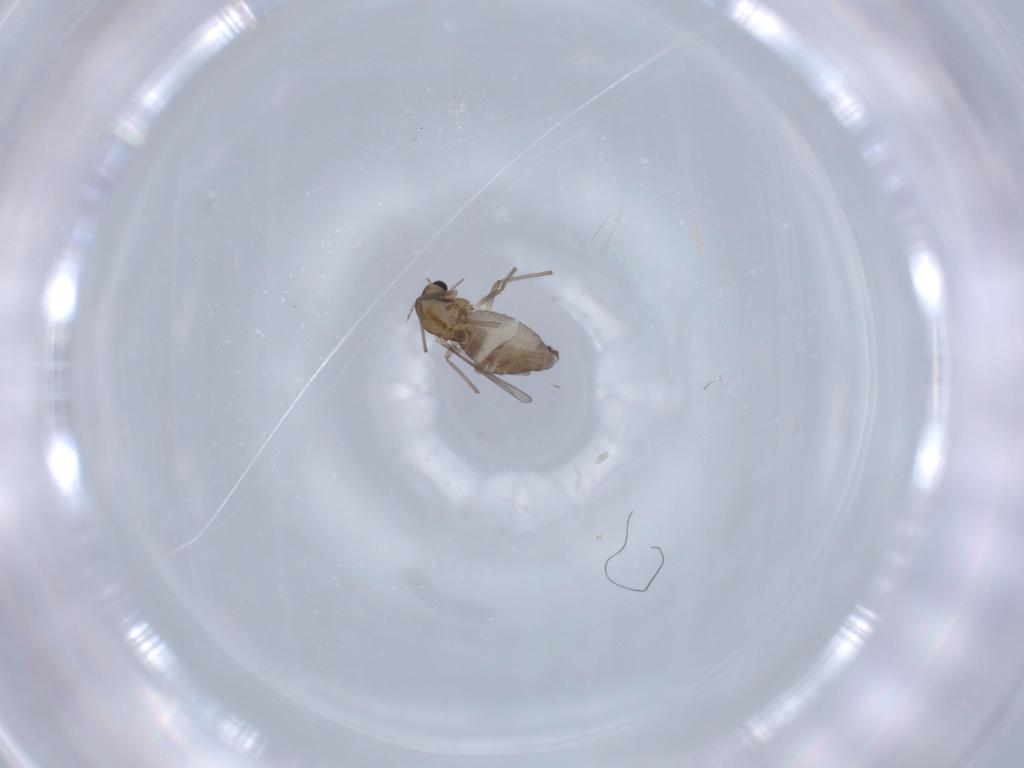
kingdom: Animalia
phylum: Arthropoda
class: Insecta
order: Diptera
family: Chironomidae
